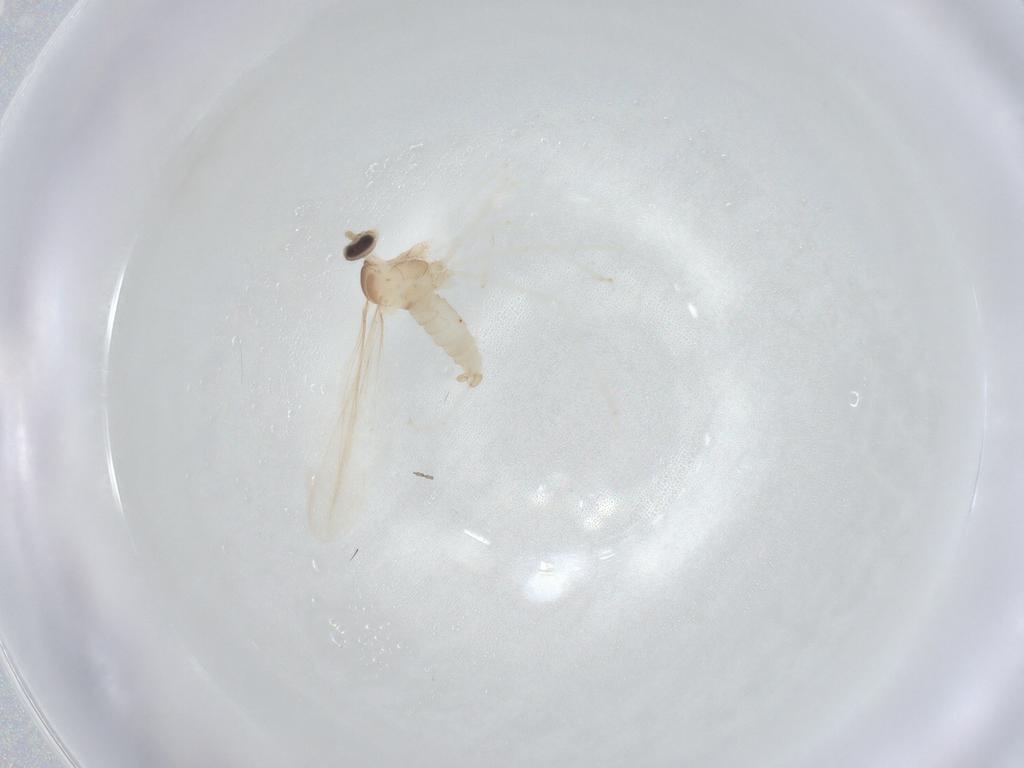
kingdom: Animalia
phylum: Arthropoda
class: Insecta
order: Diptera
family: Cecidomyiidae
